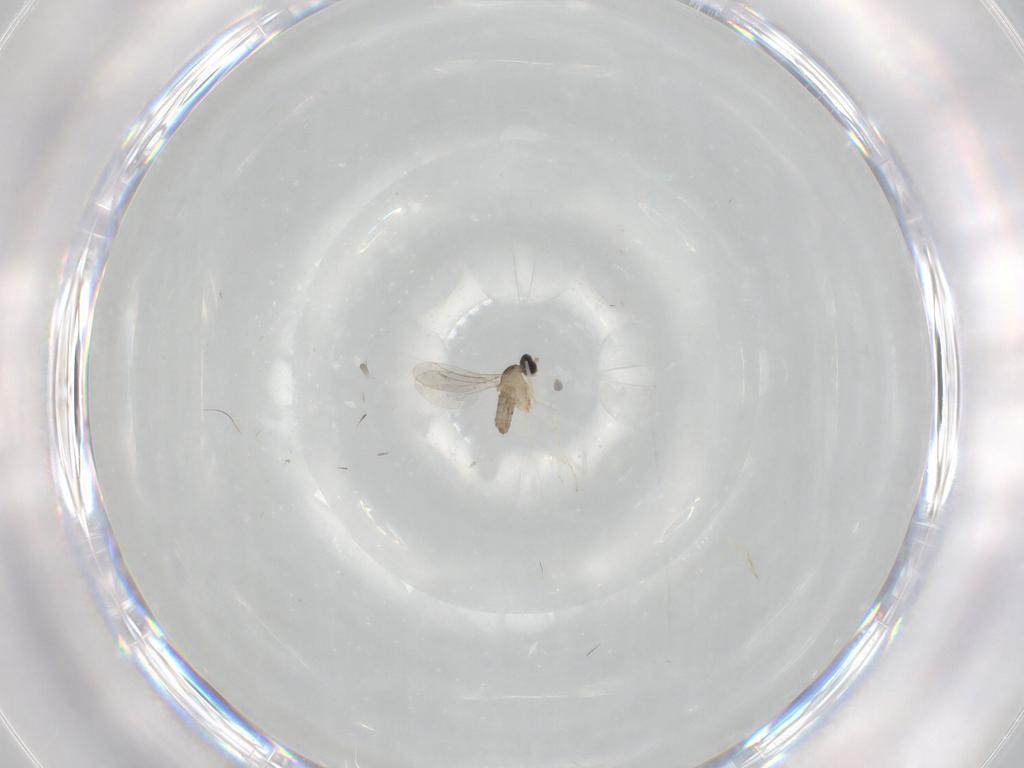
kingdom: Animalia
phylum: Arthropoda
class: Insecta
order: Diptera
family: Cecidomyiidae
